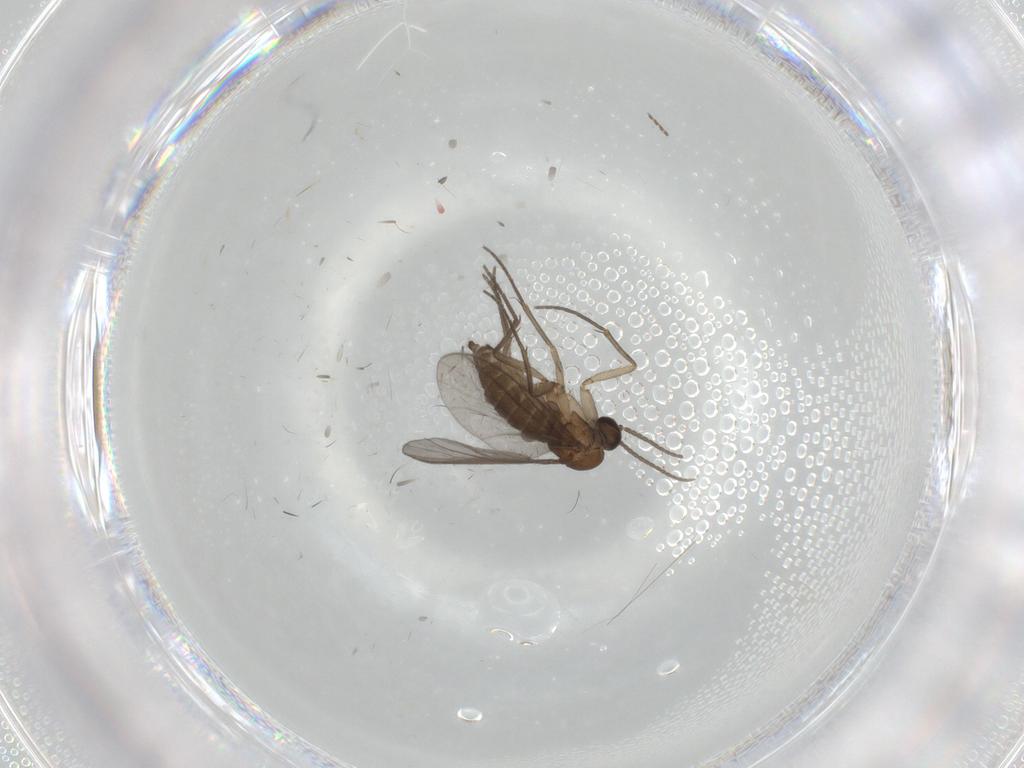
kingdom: Animalia
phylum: Arthropoda
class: Insecta
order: Diptera
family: Sciaridae
